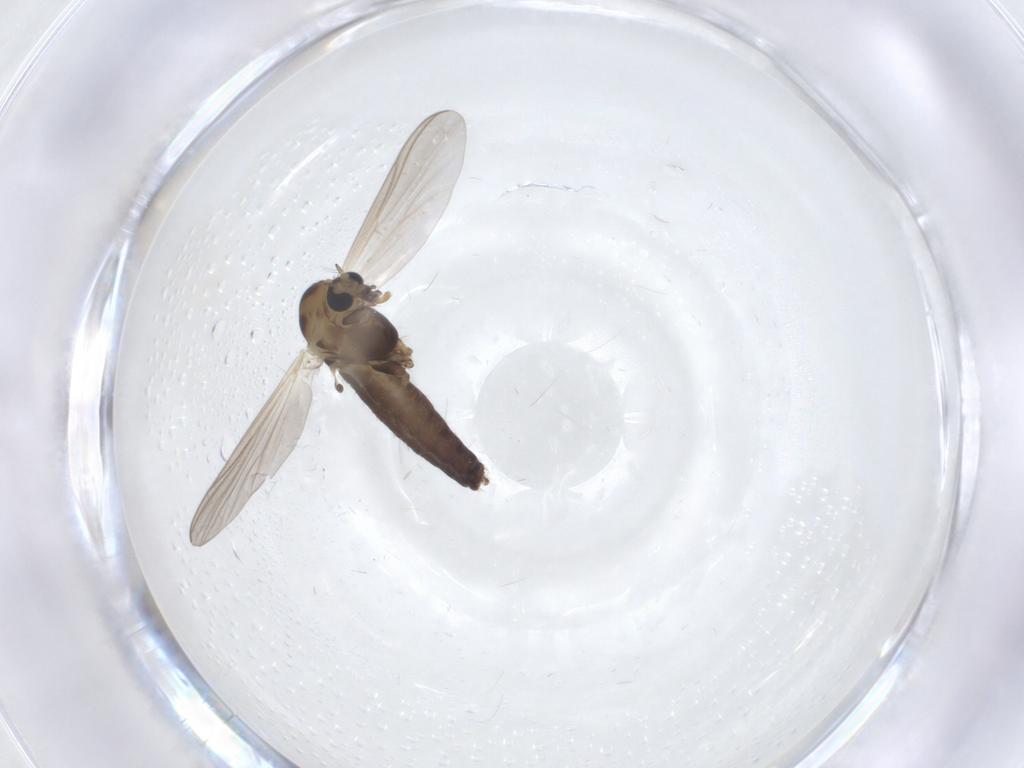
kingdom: Animalia
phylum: Arthropoda
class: Insecta
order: Diptera
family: Chironomidae
